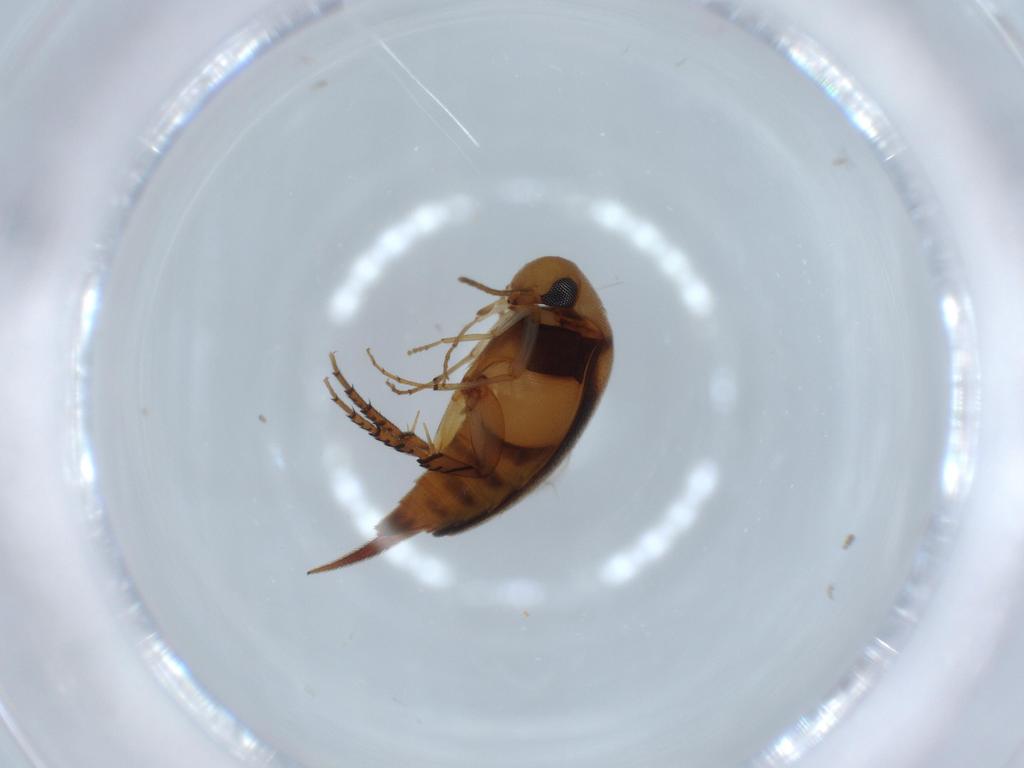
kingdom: Animalia
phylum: Arthropoda
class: Insecta
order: Coleoptera
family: Mordellidae
